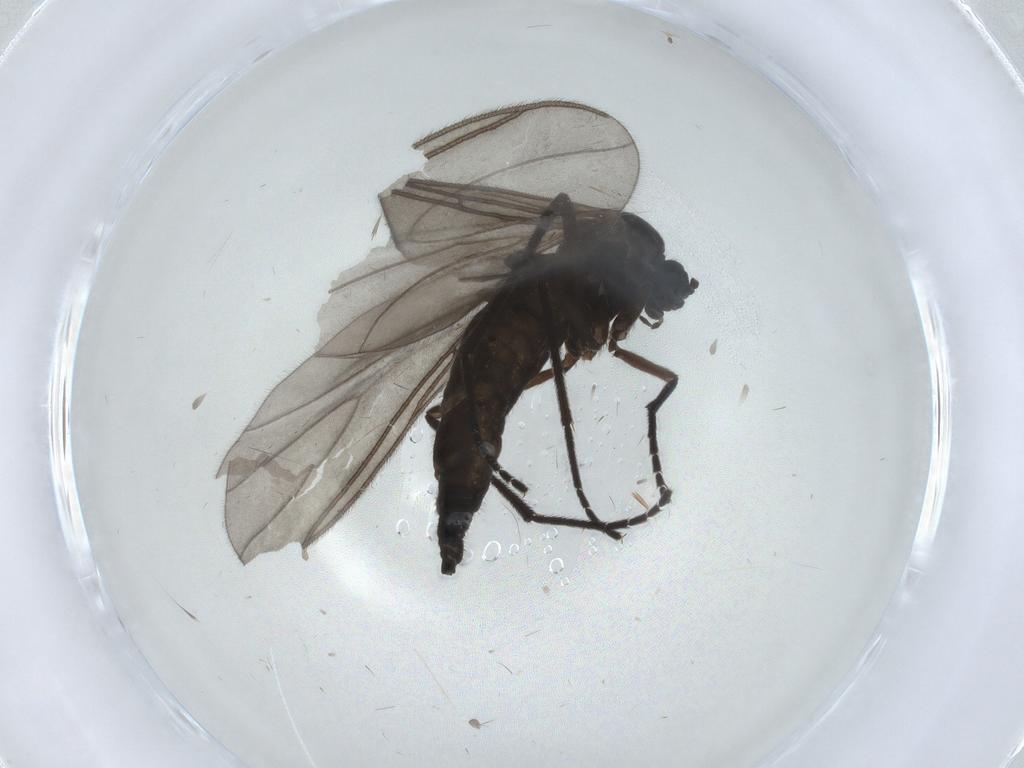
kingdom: Animalia
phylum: Arthropoda
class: Insecta
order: Diptera
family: Sciaridae
